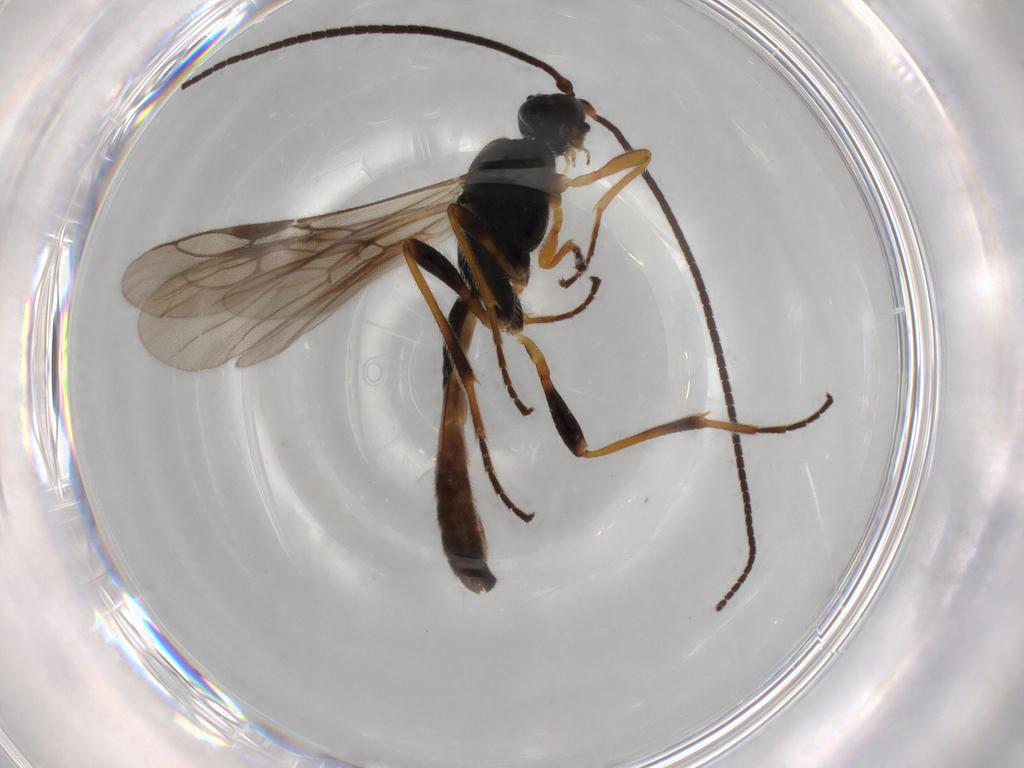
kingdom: Animalia
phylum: Arthropoda
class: Insecta
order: Hymenoptera
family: Braconidae
